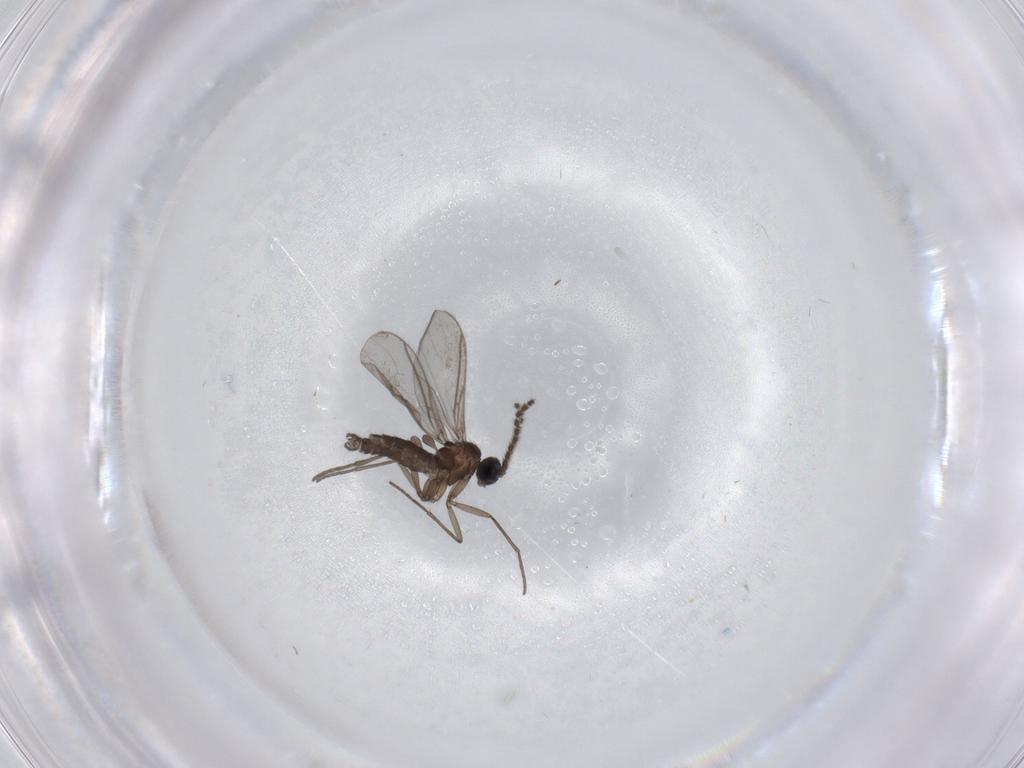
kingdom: Animalia
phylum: Arthropoda
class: Insecta
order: Diptera
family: Chironomidae
